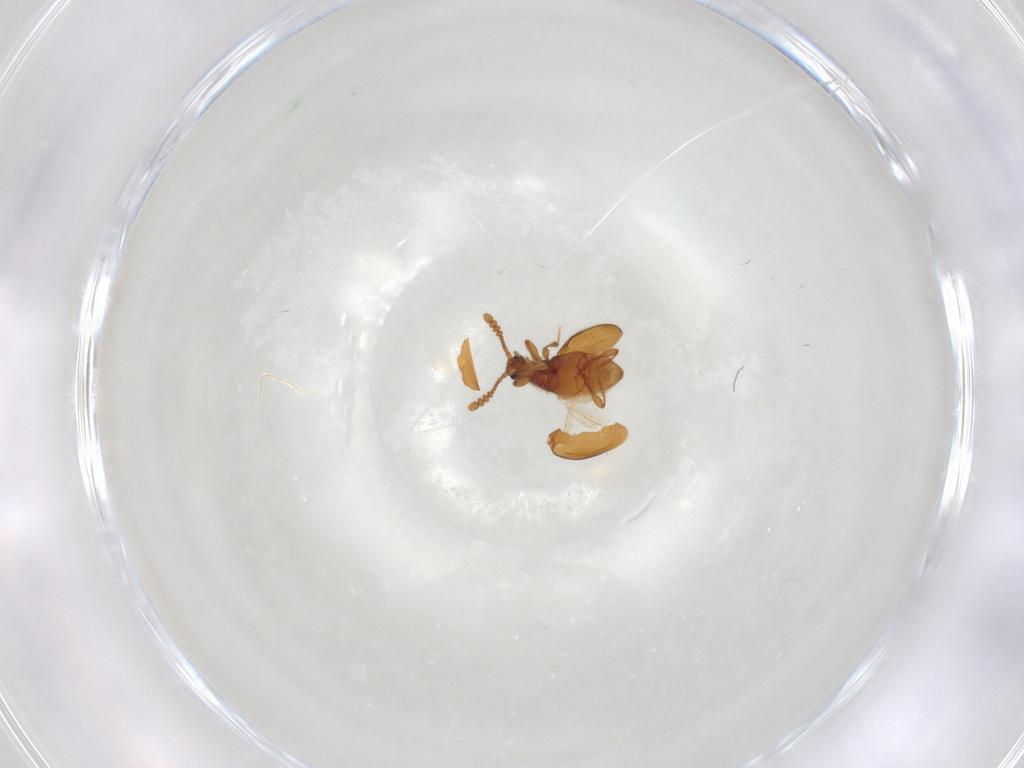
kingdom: Animalia
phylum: Arthropoda
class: Insecta
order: Coleoptera
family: Staphylinidae
